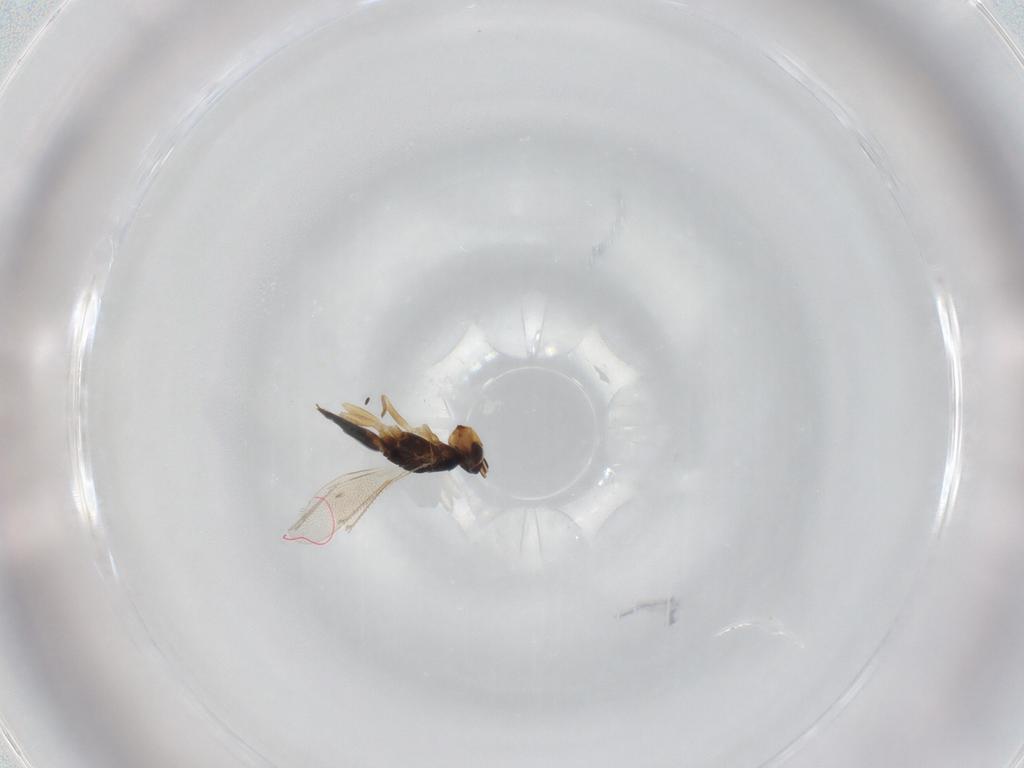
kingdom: Animalia
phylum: Arthropoda
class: Insecta
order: Hymenoptera
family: Eulophidae
